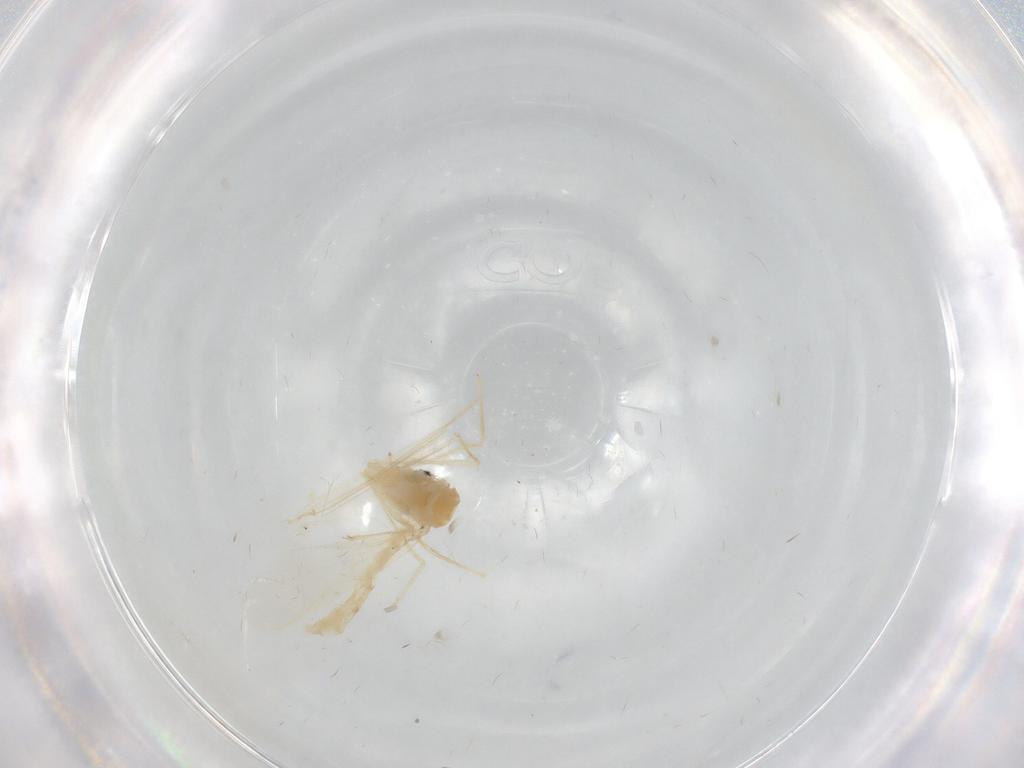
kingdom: Animalia
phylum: Arthropoda
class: Insecta
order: Diptera
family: Chironomidae
